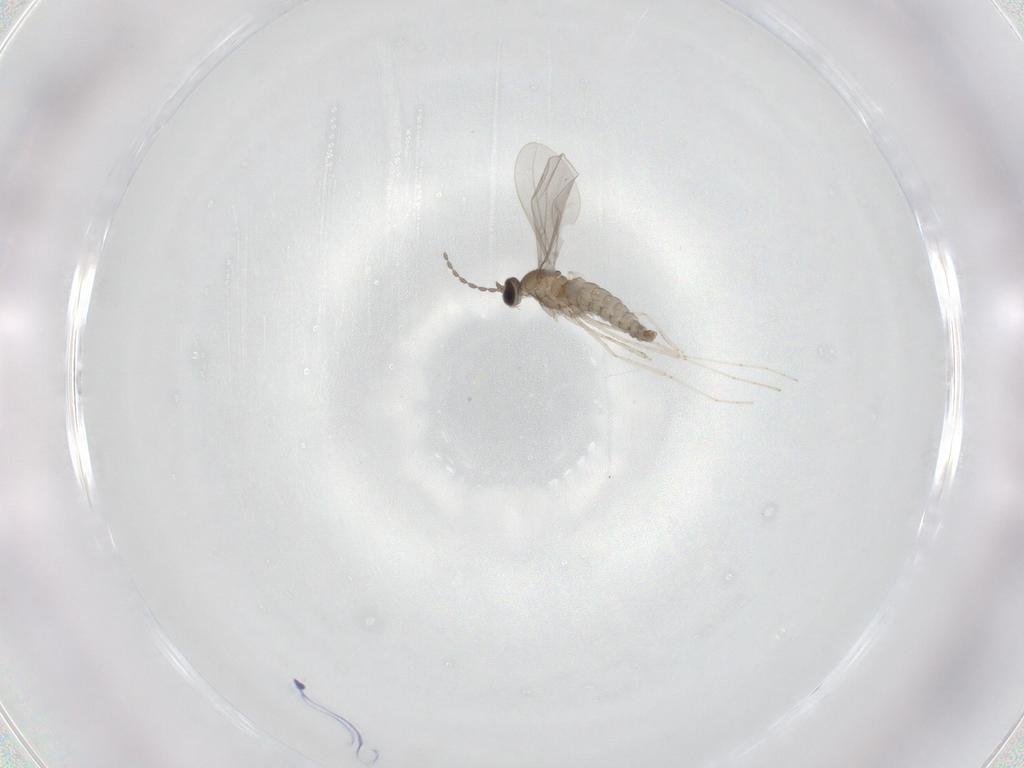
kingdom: Animalia
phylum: Arthropoda
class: Insecta
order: Diptera
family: Cecidomyiidae
